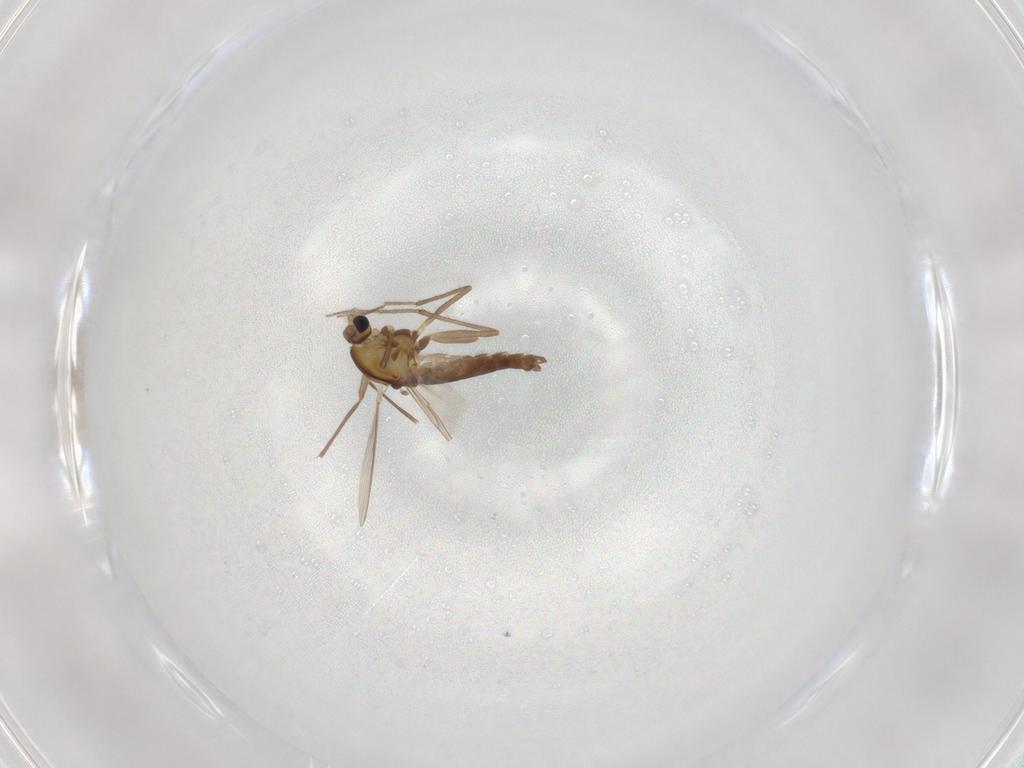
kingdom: Animalia
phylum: Arthropoda
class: Insecta
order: Diptera
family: Chironomidae
